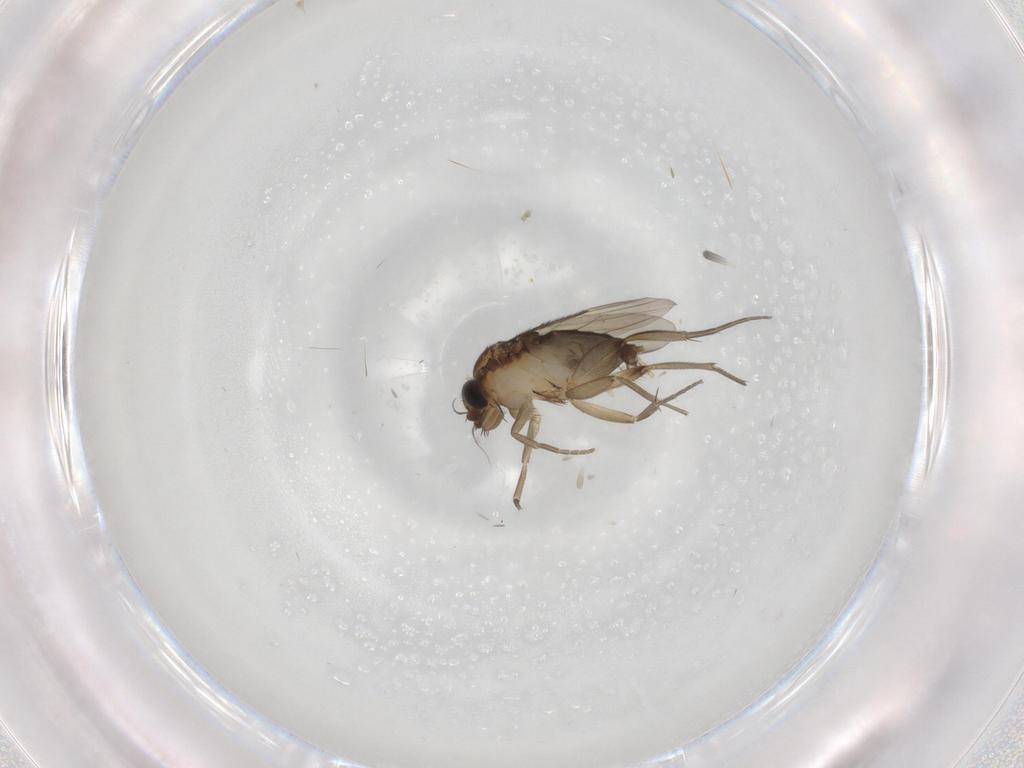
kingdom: Animalia
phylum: Arthropoda
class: Insecta
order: Diptera
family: Phoridae
